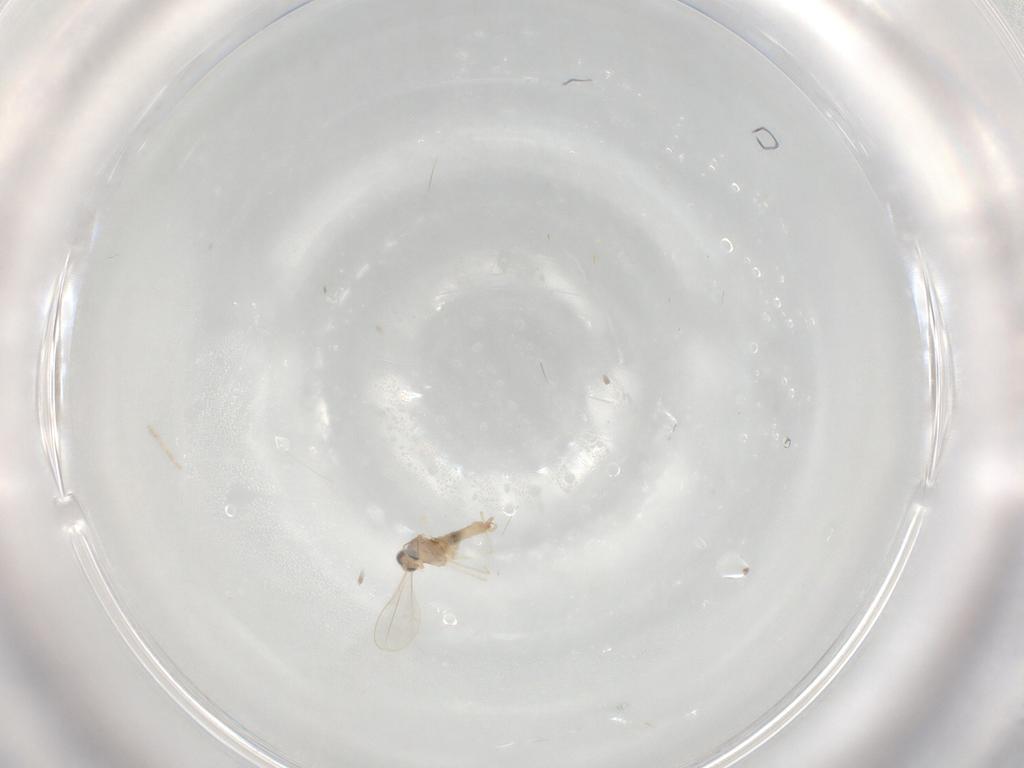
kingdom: Animalia
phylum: Arthropoda
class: Insecta
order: Diptera
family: Cecidomyiidae
